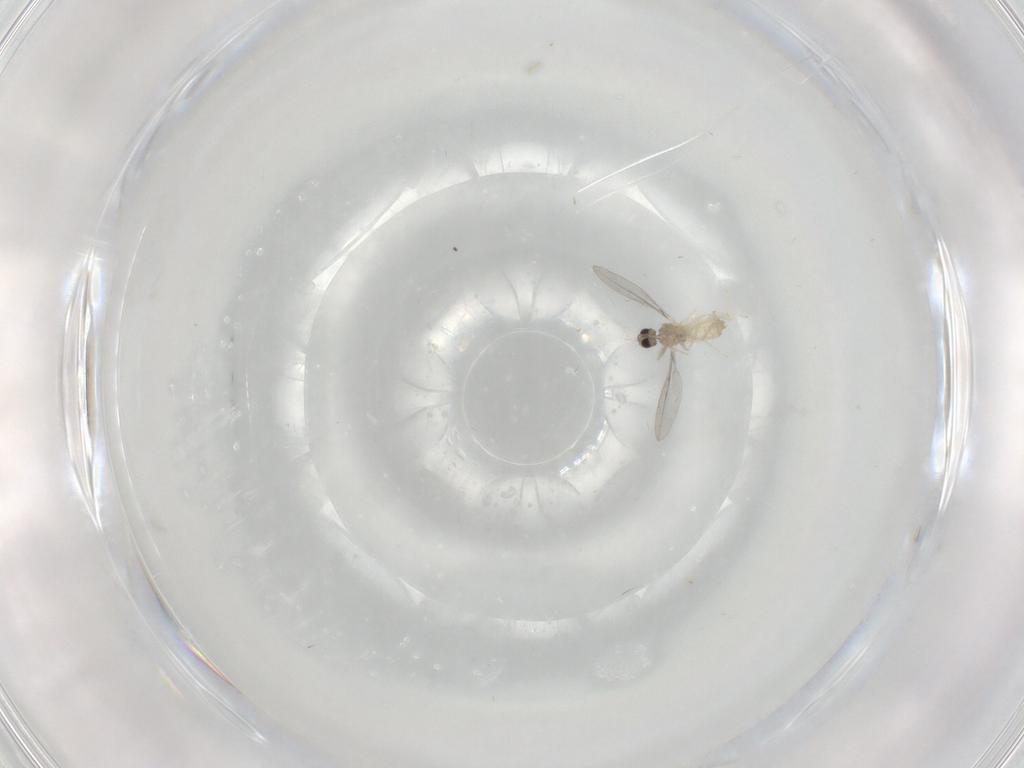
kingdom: Animalia
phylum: Arthropoda
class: Insecta
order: Diptera
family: Cecidomyiidae
